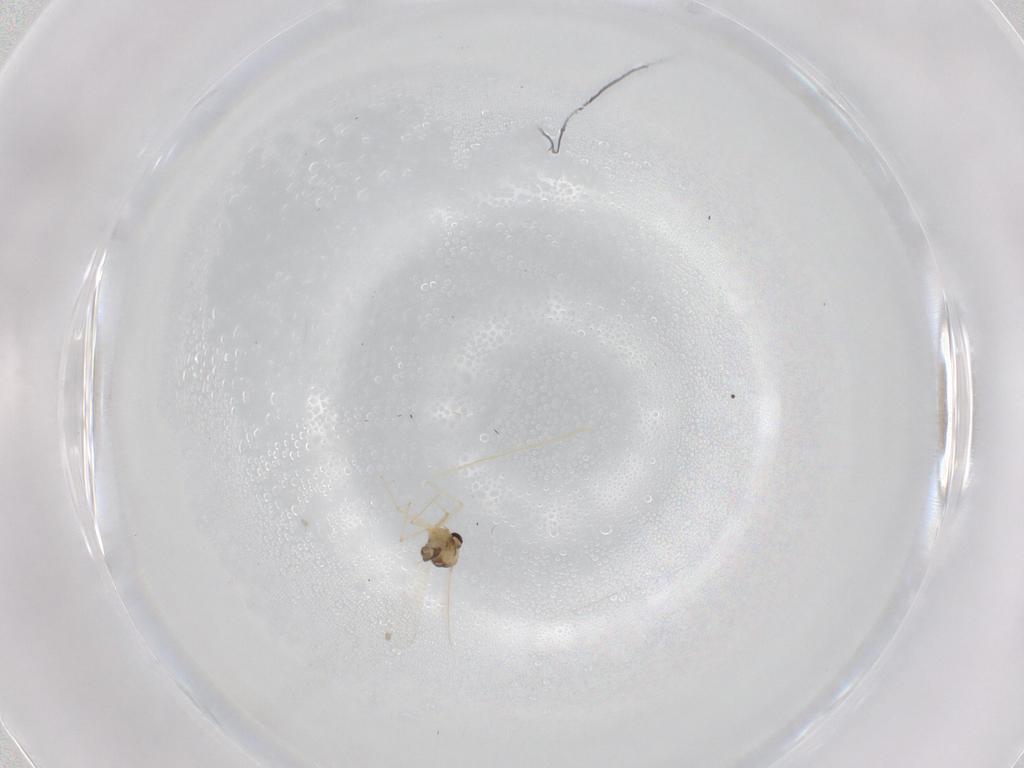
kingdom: Animalia
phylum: Arthropoda
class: Insecta
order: Diptera
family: Chironomidae
